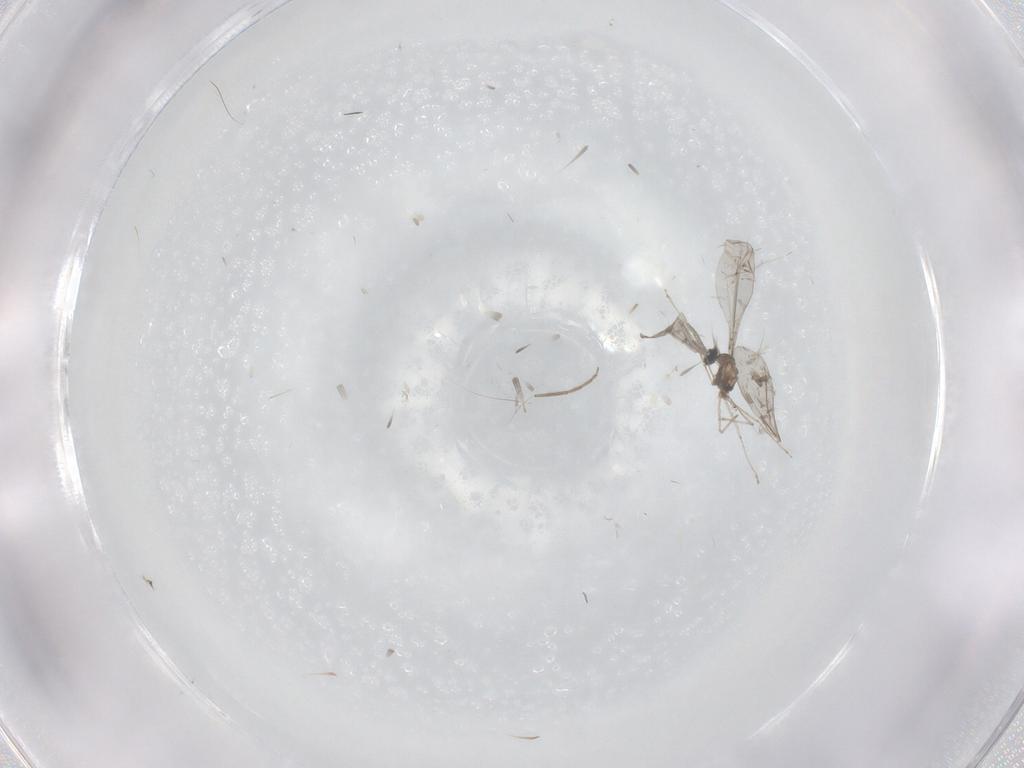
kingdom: Animalia
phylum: Arthropoda
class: Insecta
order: Diptera
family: Cecidomyiidae
